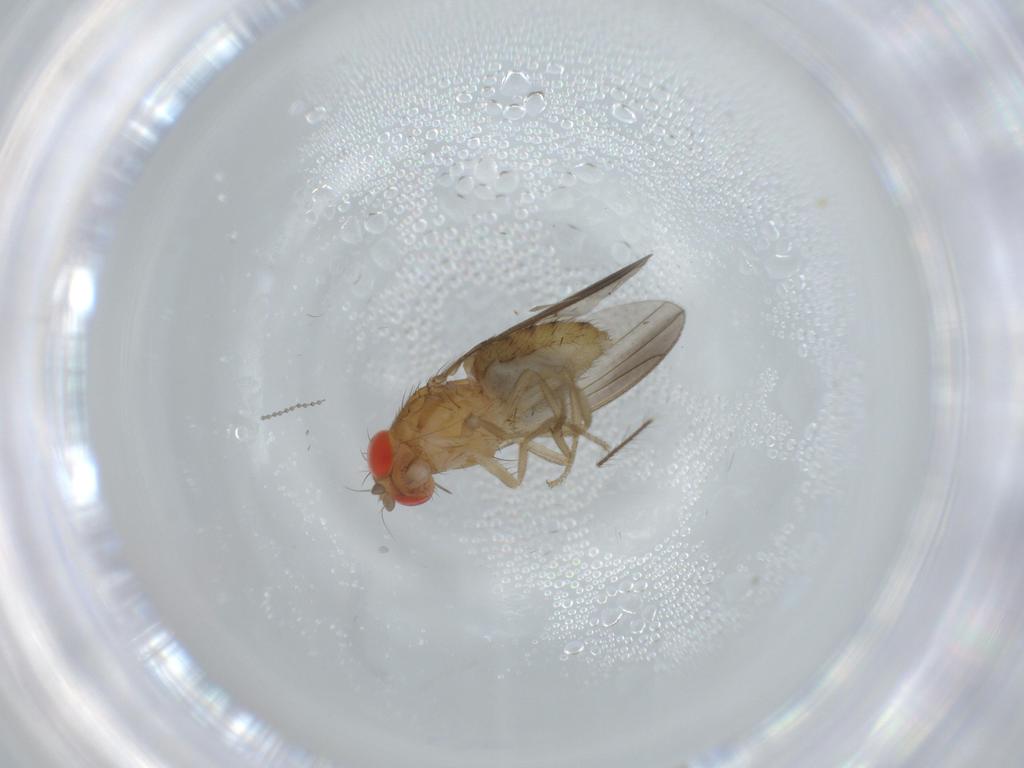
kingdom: Animalia
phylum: Arthropoda
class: Insecta
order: Diptera
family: Drosophilidae
